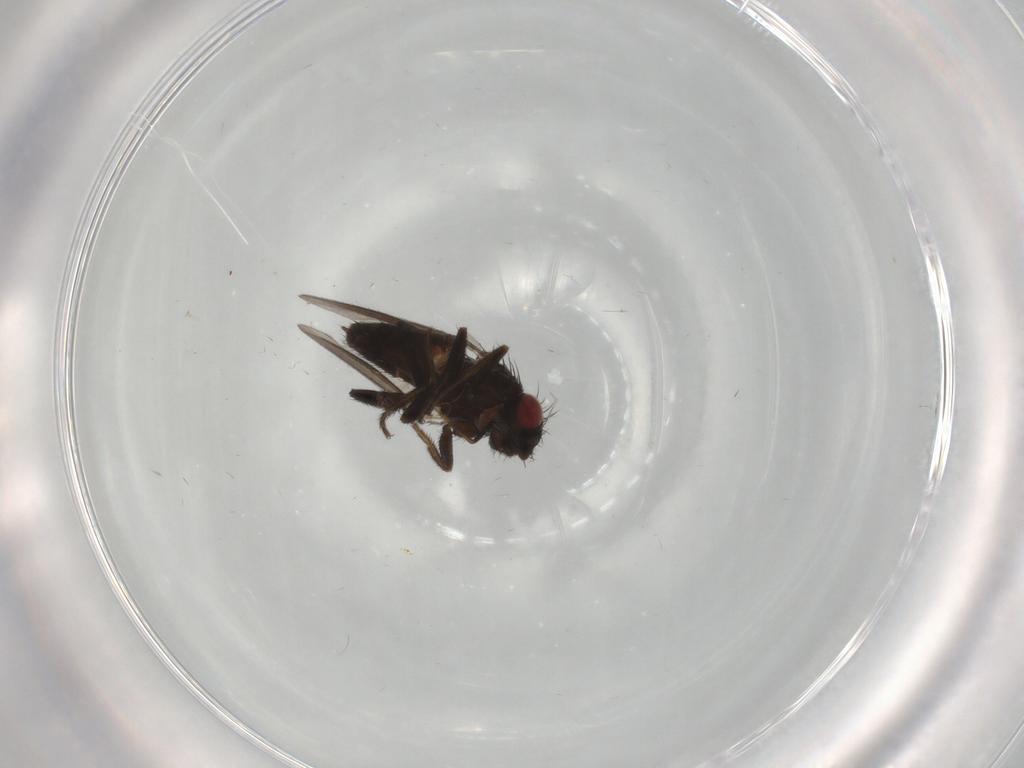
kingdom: Animalia
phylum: Arthropoda
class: Insecta
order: Diptera
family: Milichiidae
